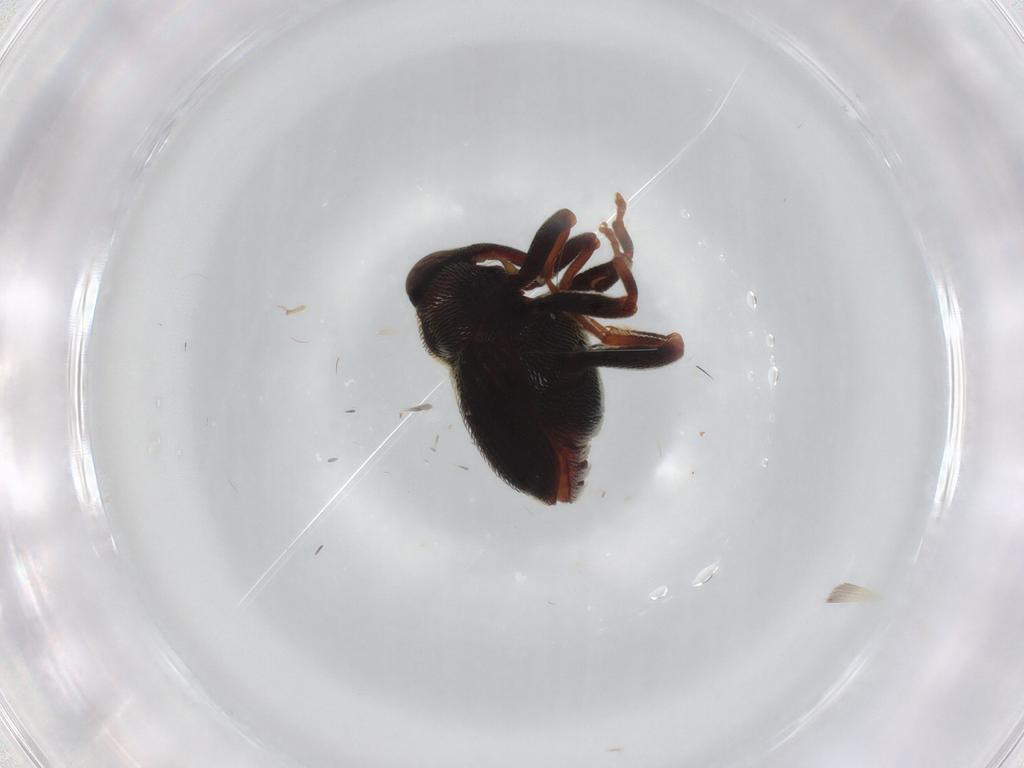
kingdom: Animalia
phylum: Arthropoda
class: Insecta
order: Coleoptera
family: Curculionidae
